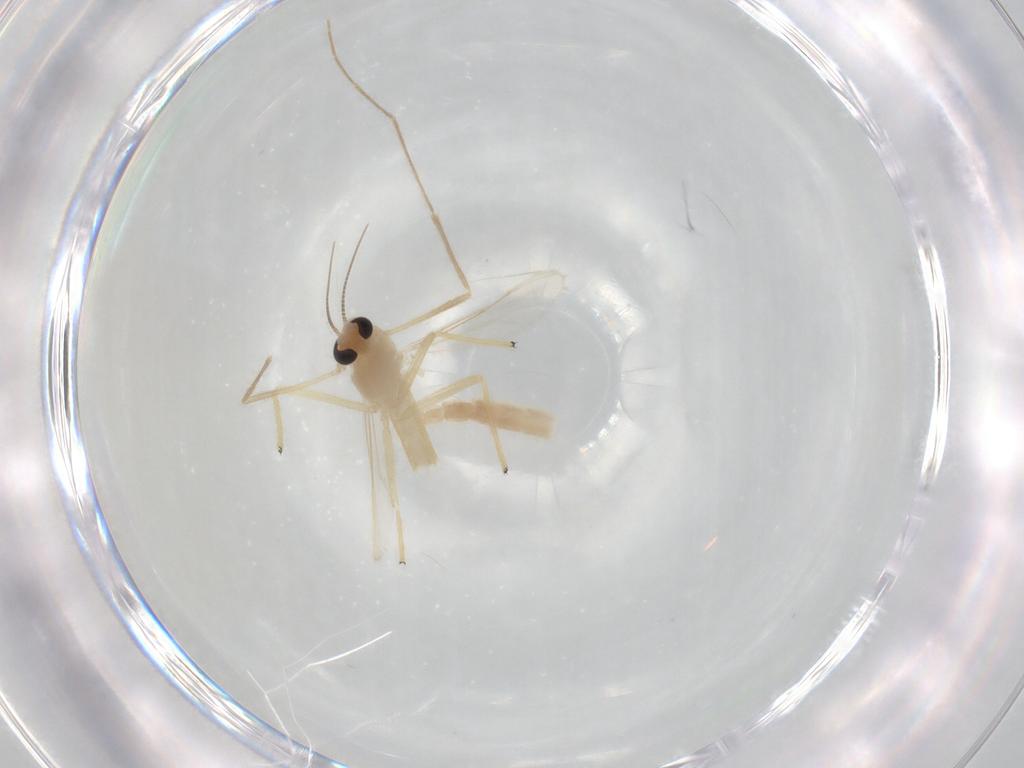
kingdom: Animalia
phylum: Arthropoda
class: Insecta
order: Diptera
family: Chironomidae
